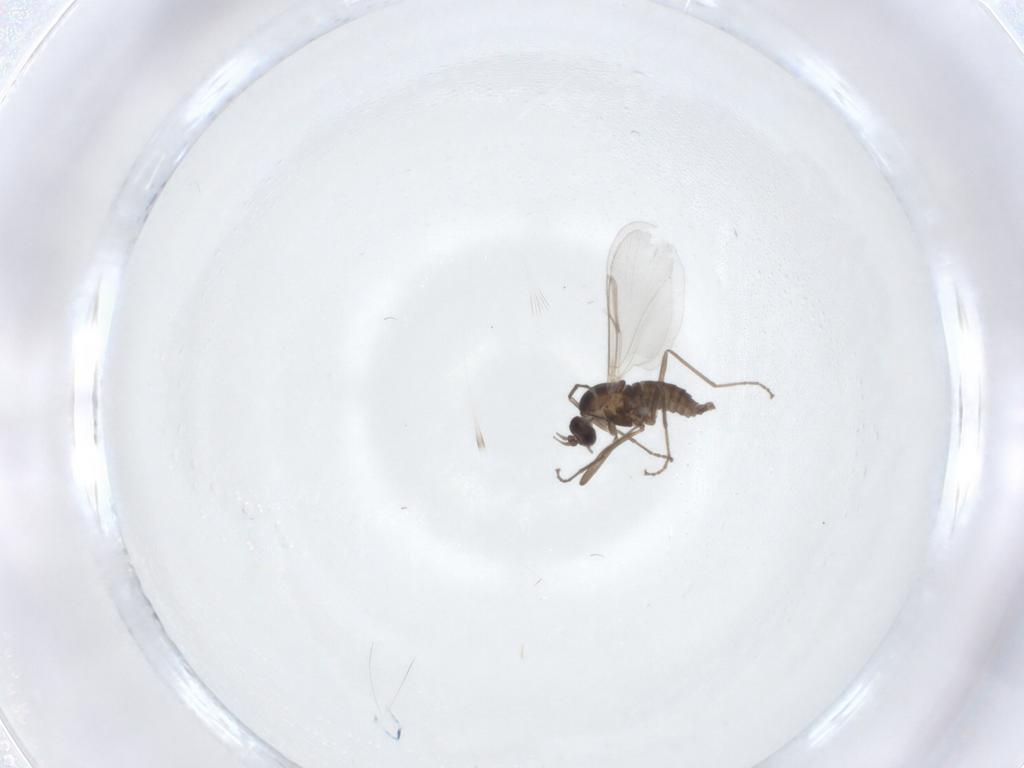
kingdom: Animalia
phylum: Arthropoda
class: Insecta
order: Diptera
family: Cecidomyiidae
